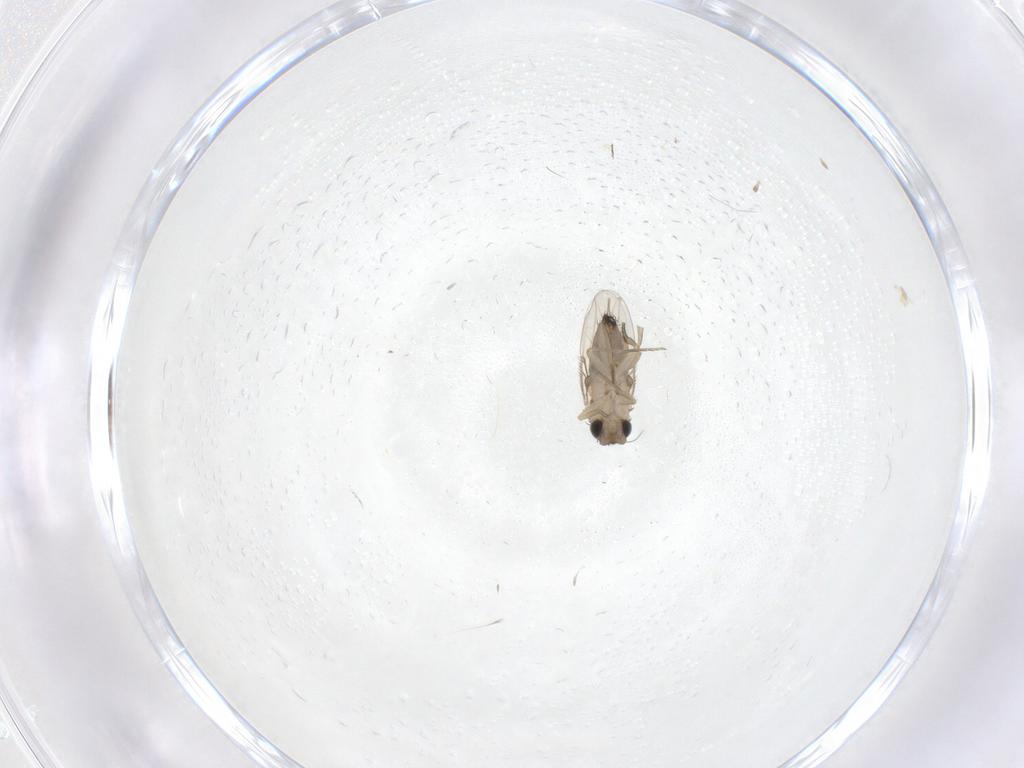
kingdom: Animalia
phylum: Arthropoda
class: Insecta
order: Diptera
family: Phoridae
